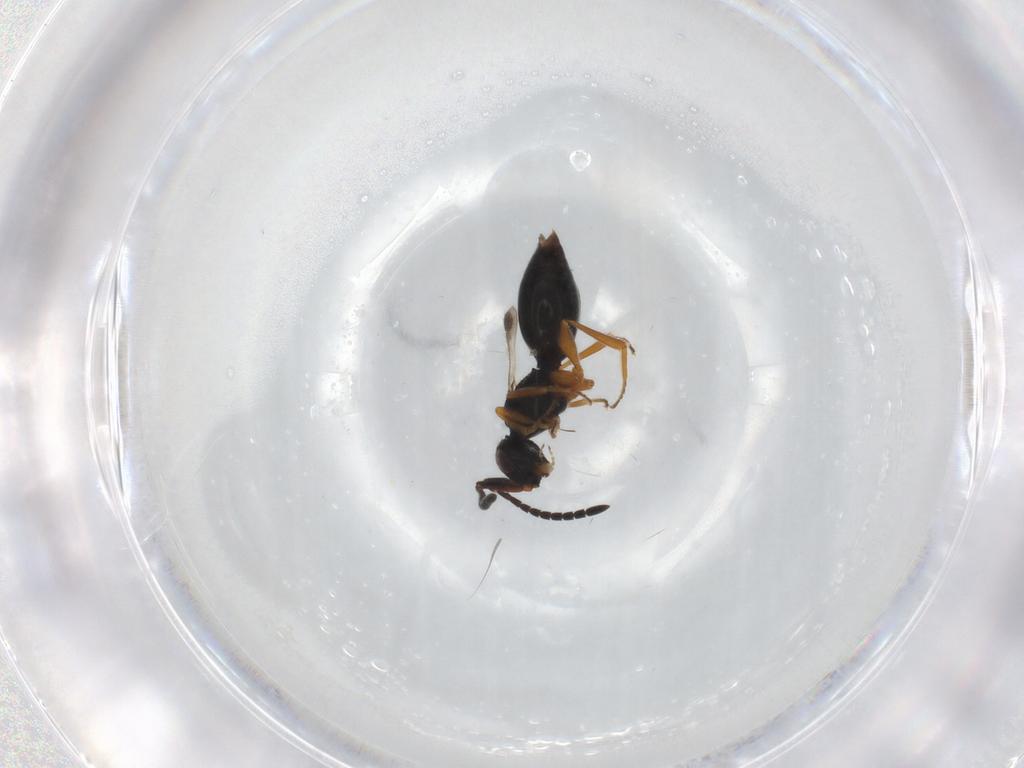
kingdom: Animalia
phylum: Arthropoda
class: Insecta
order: Hymenoptera
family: Megaspilidae
